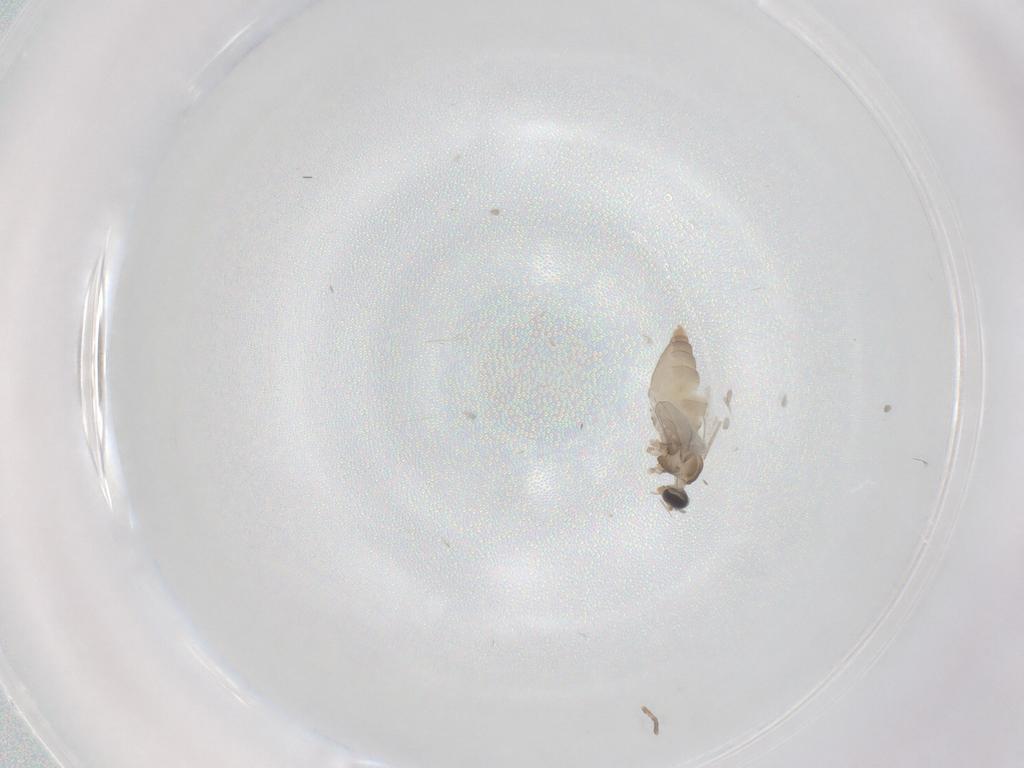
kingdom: Animalia
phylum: Arthropoda
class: Insecta
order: Diptera
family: Cecidomyiidae
